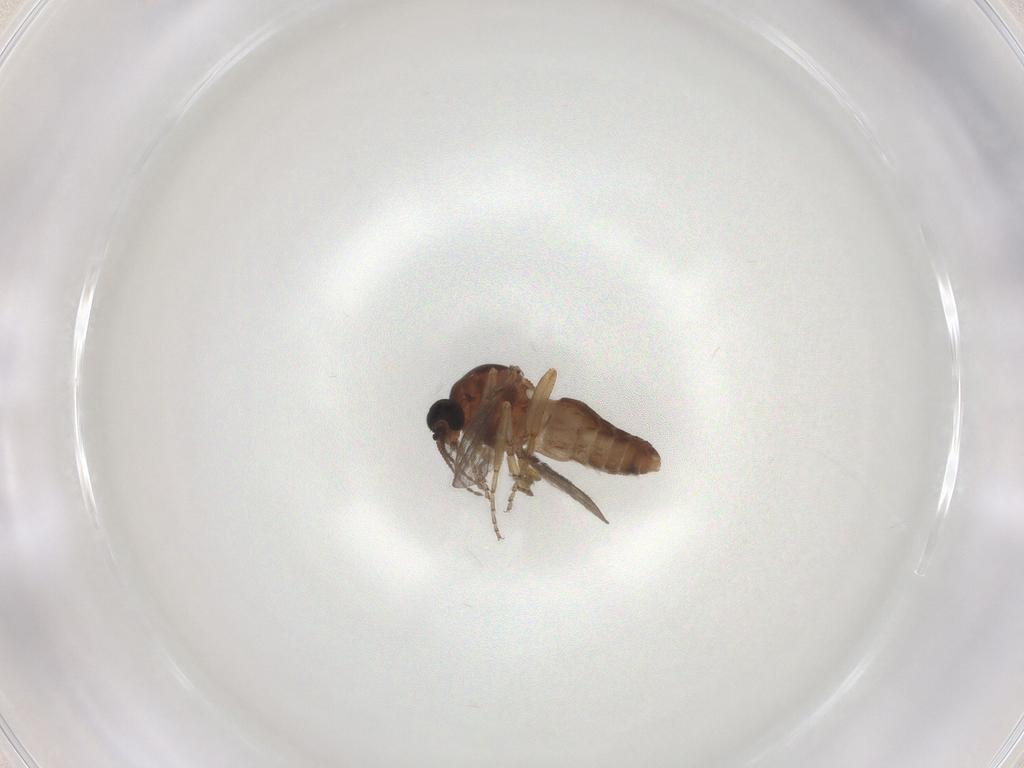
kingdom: Animalia
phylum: Arthropoda
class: Insecta
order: Diptera
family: Ceratopogonidae
